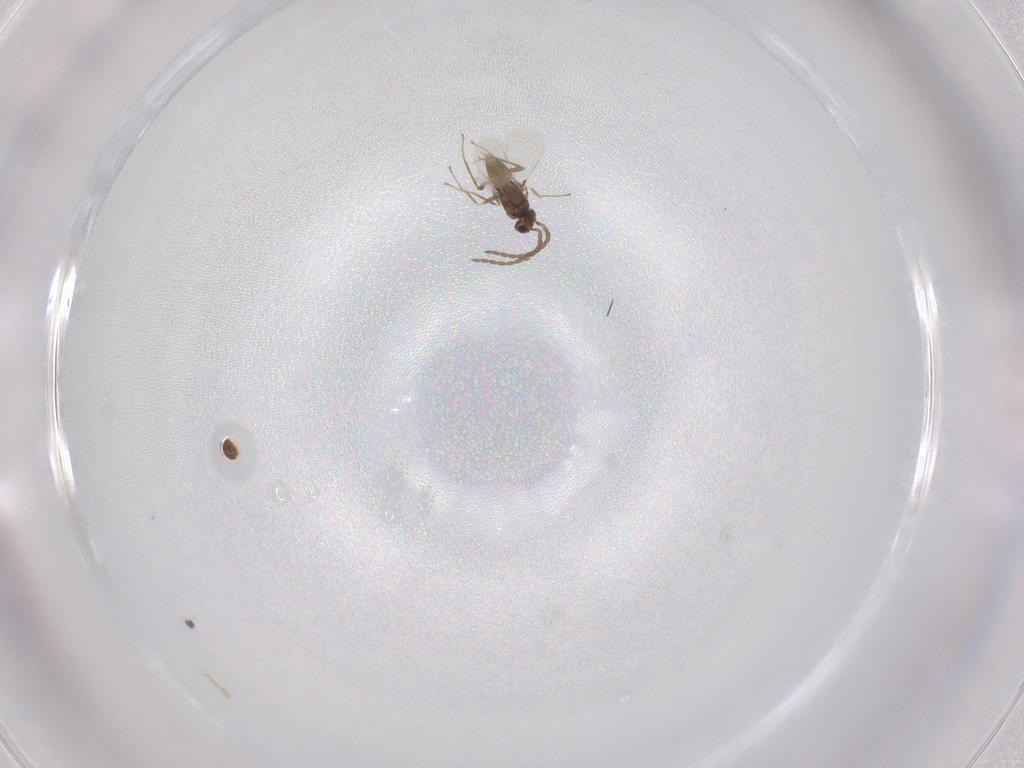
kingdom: Animalia
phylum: Arthropoda
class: Insecta
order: Hymenoptera
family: Mymaridae
